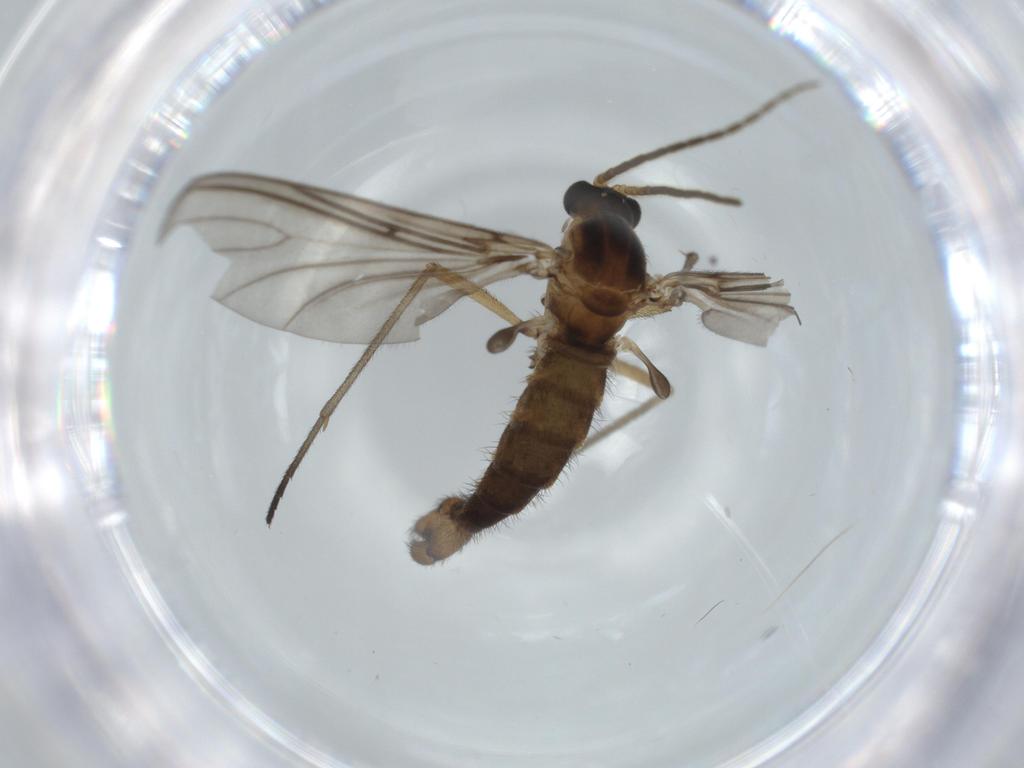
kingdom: Animalia
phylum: Arthropoda
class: Insecta
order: Diptera
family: Sciaridae
